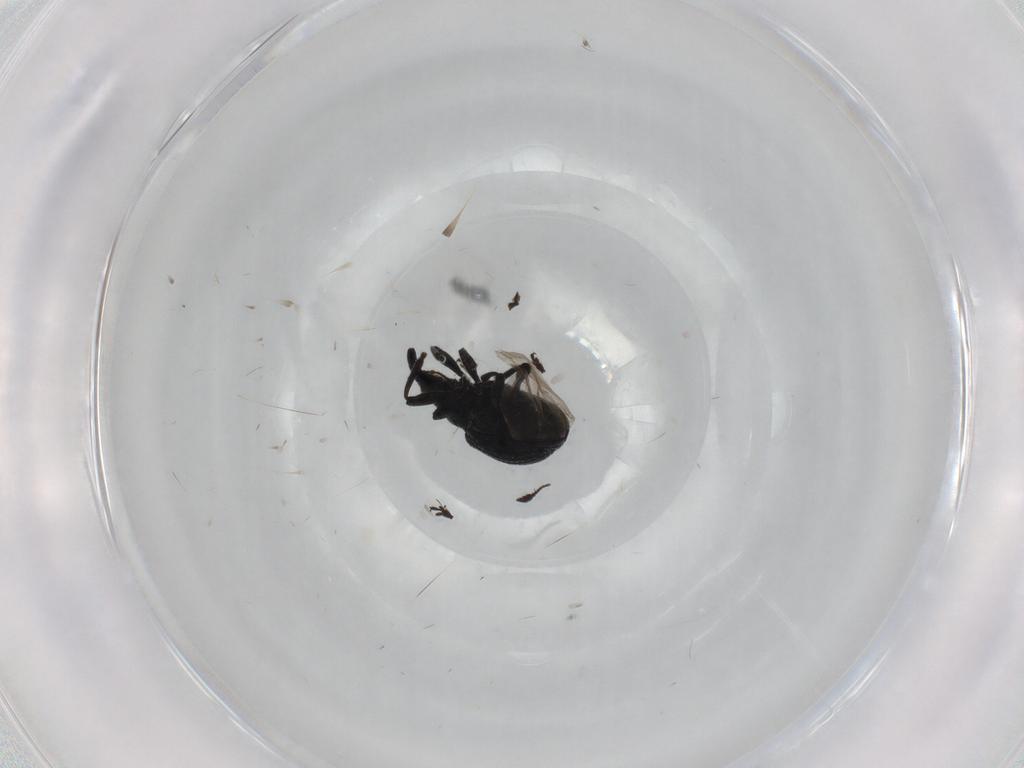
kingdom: Animalia
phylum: Arthropoda
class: Insecta
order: Coleoptera
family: Brentidae
